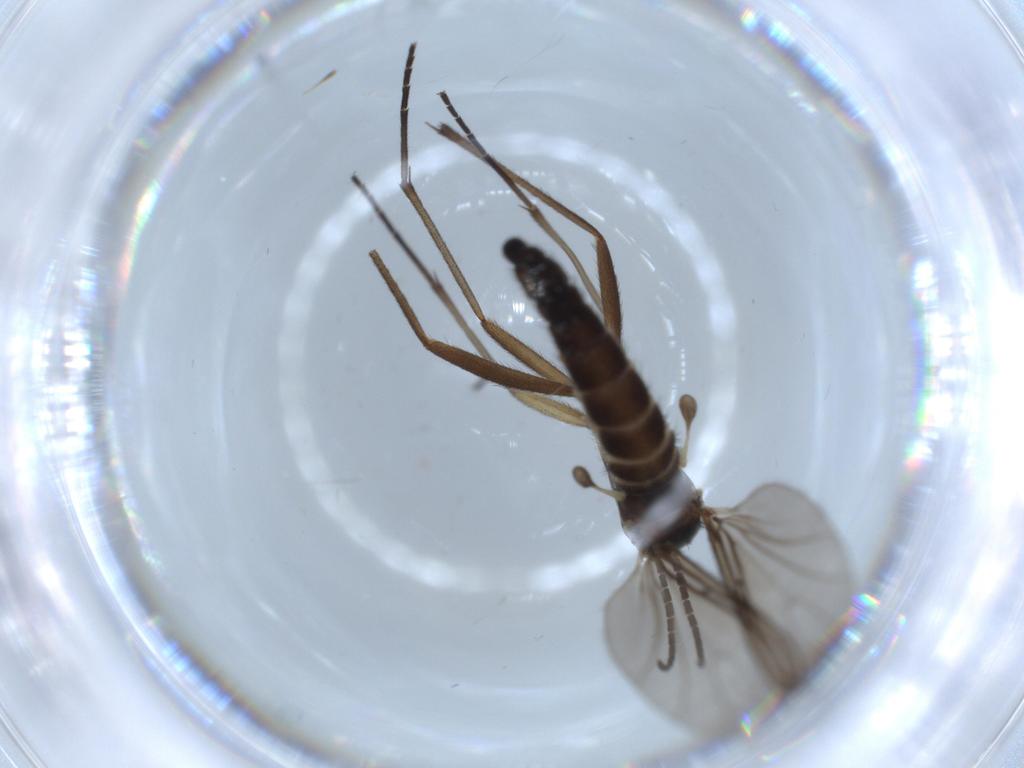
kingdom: Animalia
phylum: Arthropoda
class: Insecta
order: Diptera
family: Sciaridae
